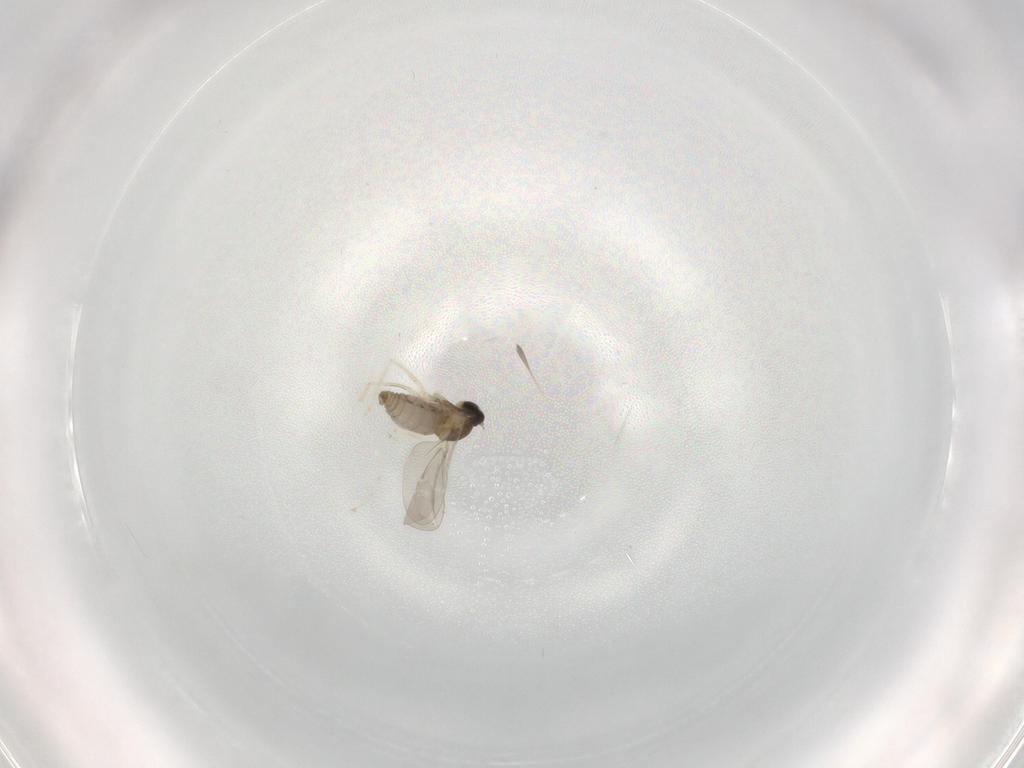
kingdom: Animalia
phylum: Arthropoda
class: Insecta
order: Diptera
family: Cecidomyiidae
